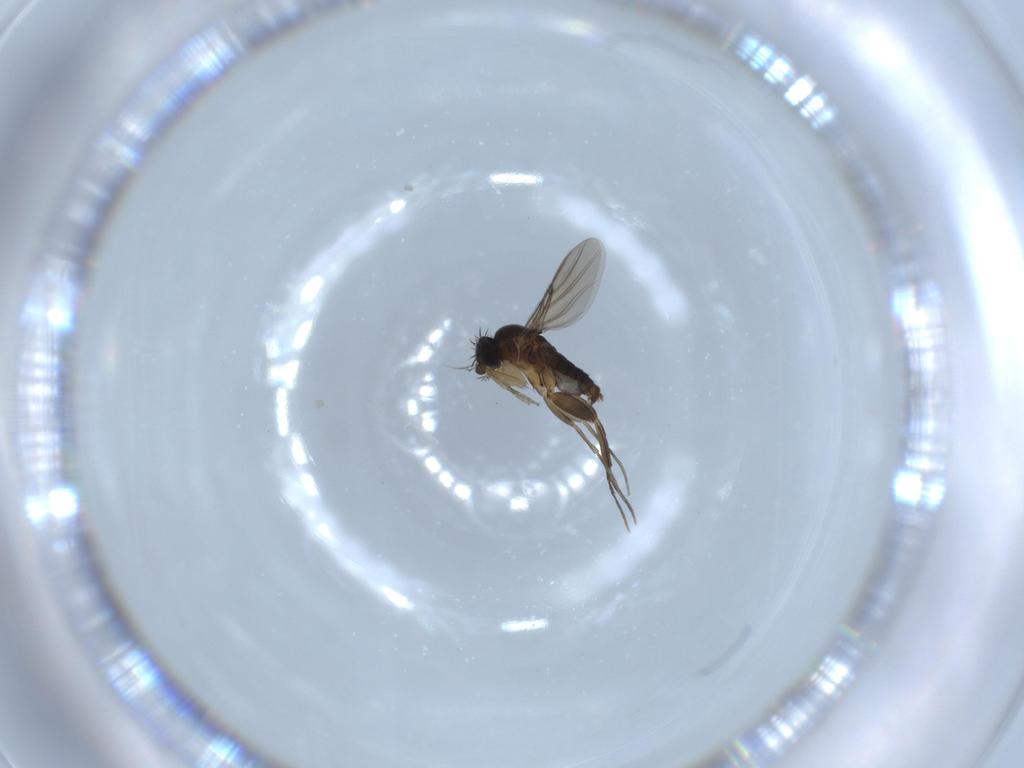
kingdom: Animalia
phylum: Arthropoda
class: Insecta
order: Diptera
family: Phoridae
